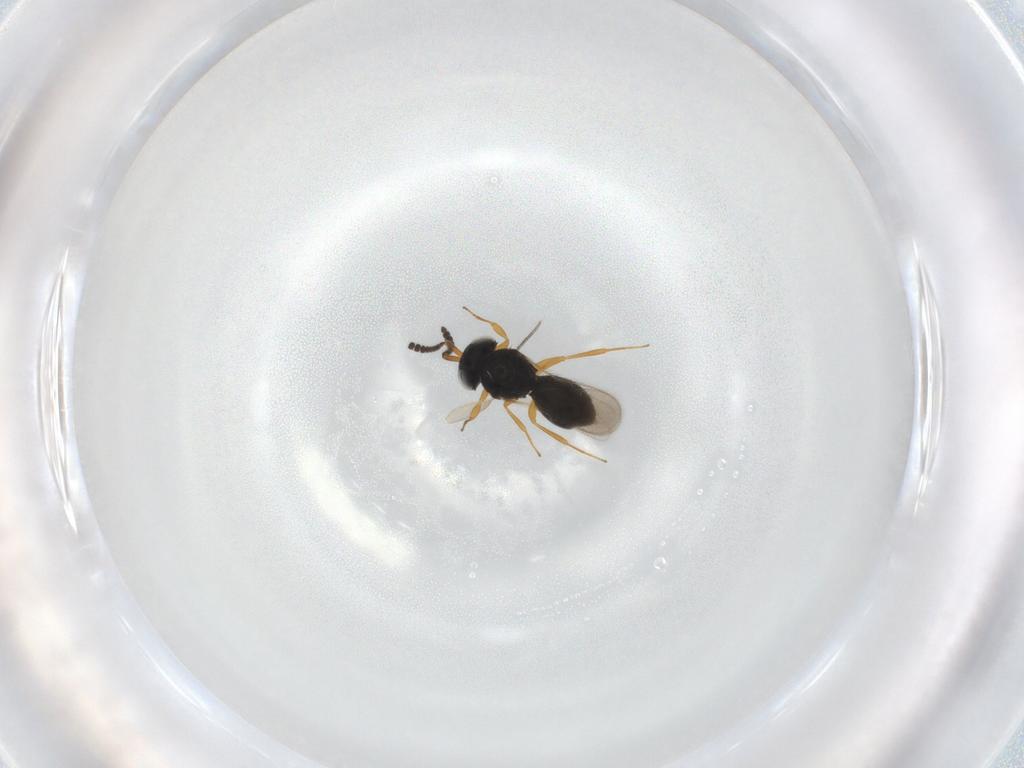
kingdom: Animalia
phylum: Arthropoda
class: Insecta
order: Hymenoptera
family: Scelionidae
